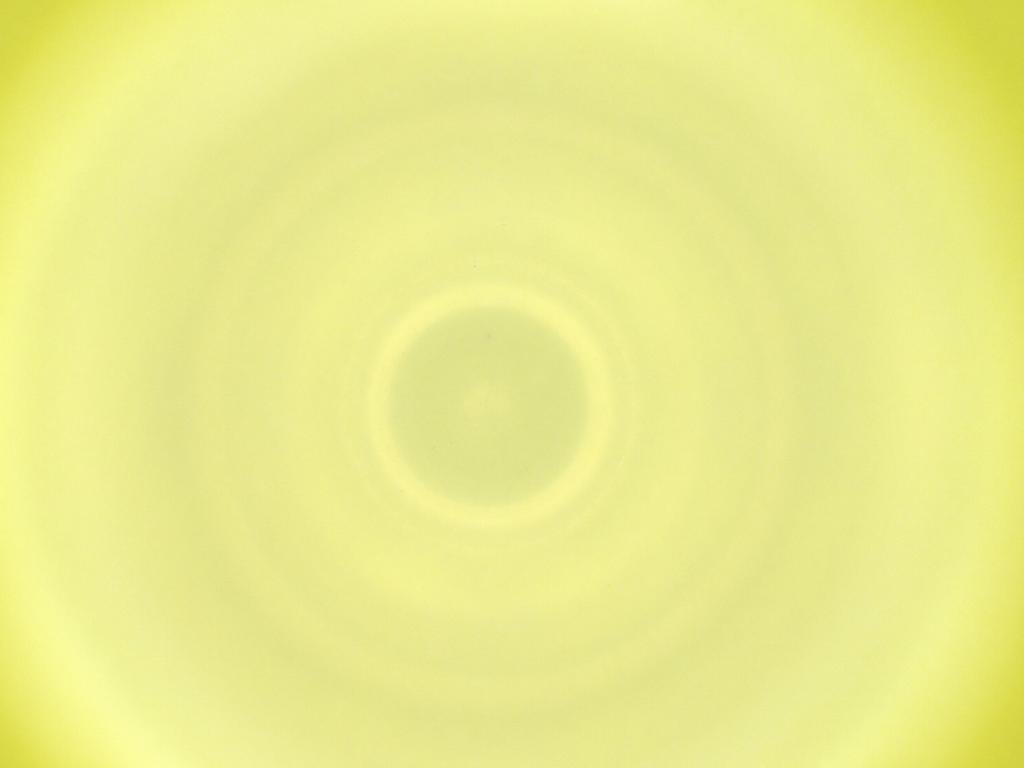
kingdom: Animalia
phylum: Arthropoda
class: Insecta
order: Diptera
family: Cecidomyiidae
